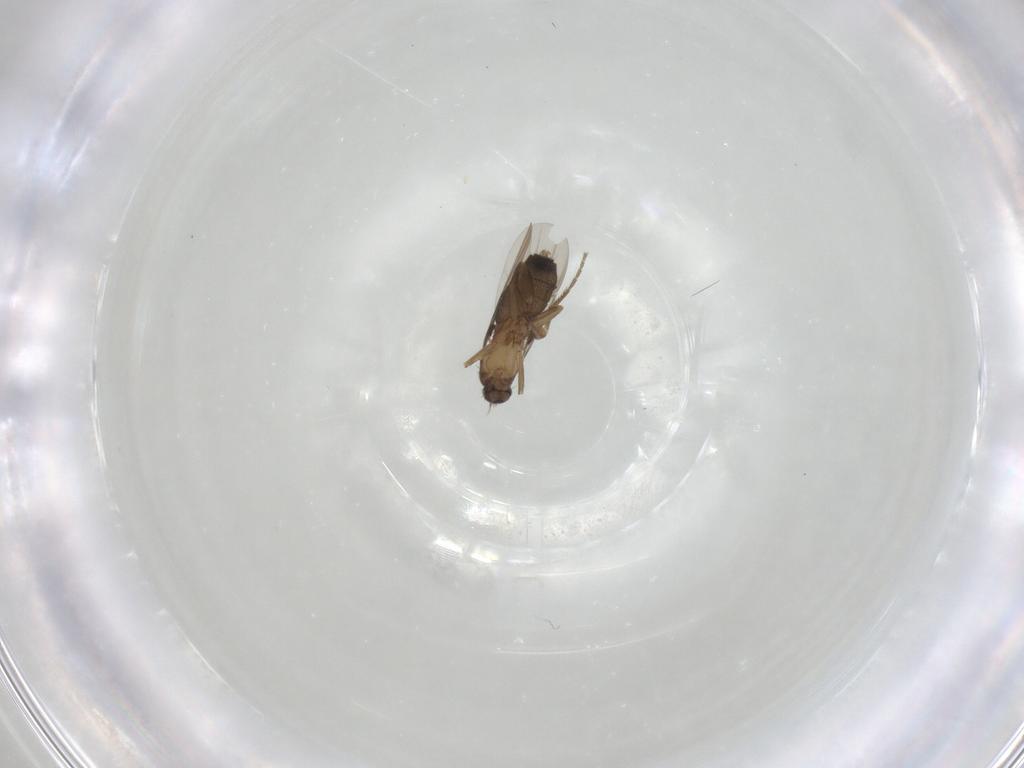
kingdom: Animalia
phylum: Arthropoda
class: Insecta
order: Diptera
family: Phoridae
